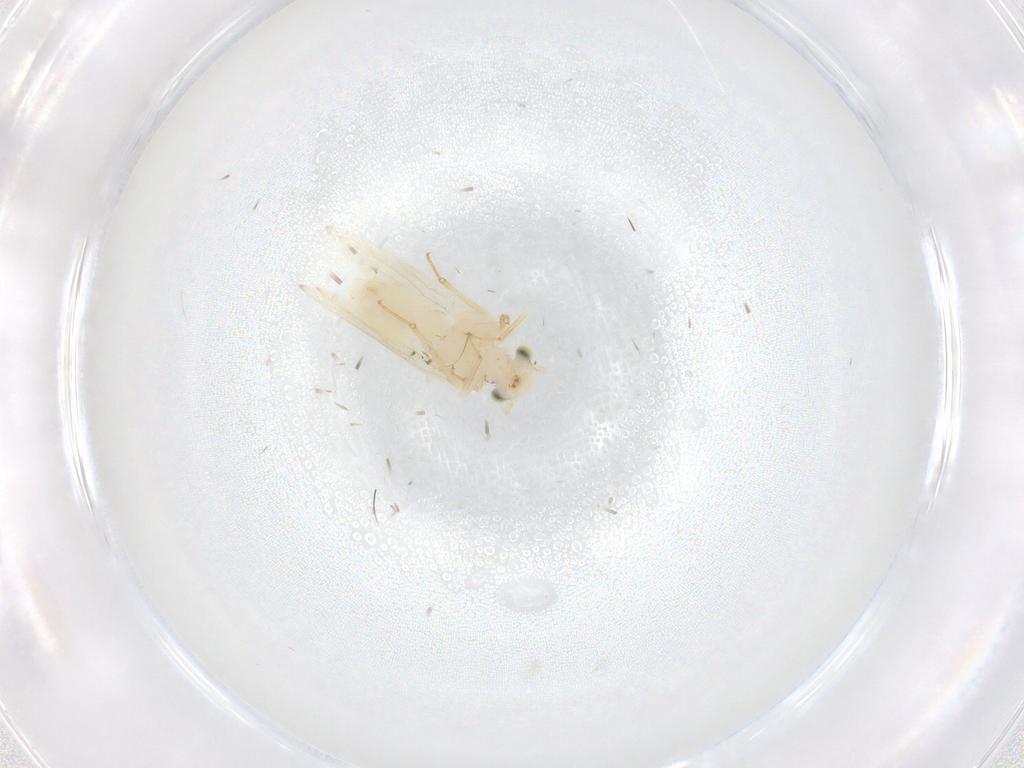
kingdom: Animalia
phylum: Arthropoda
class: Insecta
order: Psocodea
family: Lepidopsocidae
